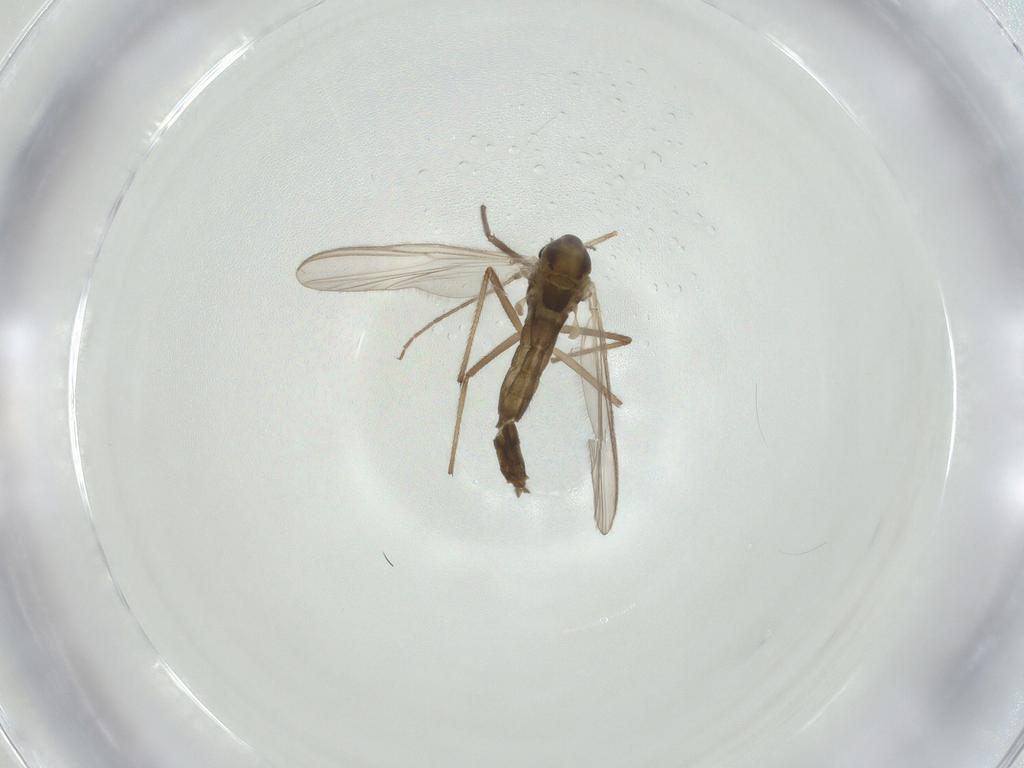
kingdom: Animalia
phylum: Arthropoda
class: Insecta
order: Diptera
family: Chironomidae
